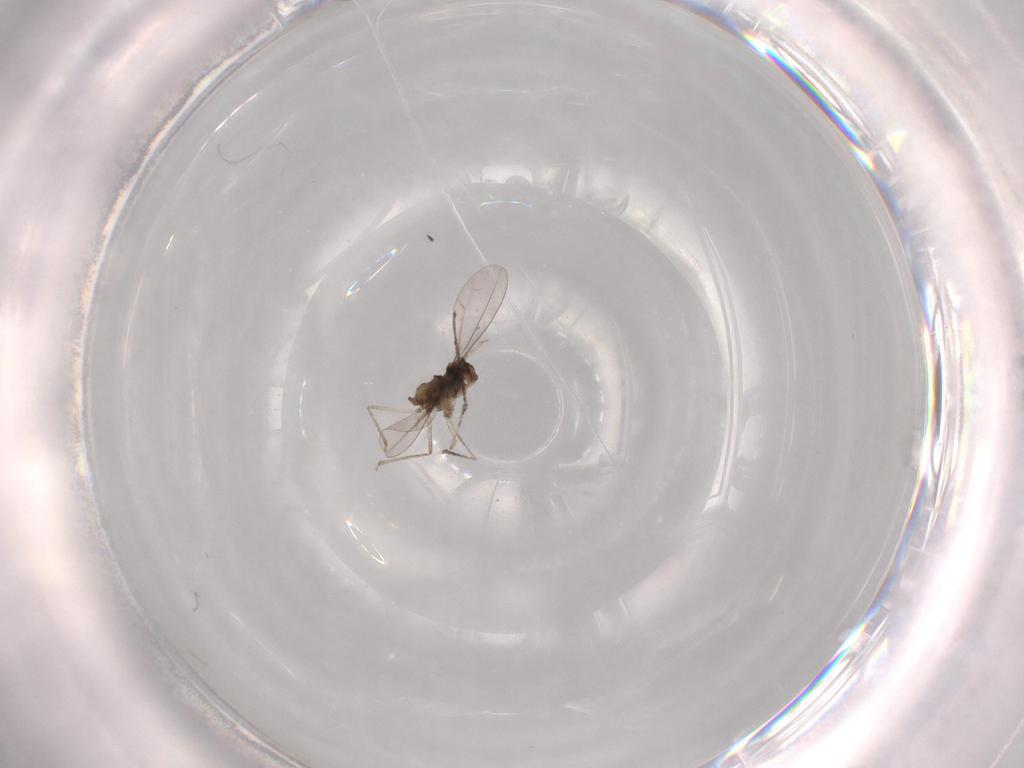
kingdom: Animalia
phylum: Arthropoda
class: Insecta
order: Diptera
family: Cecidomyiidae
